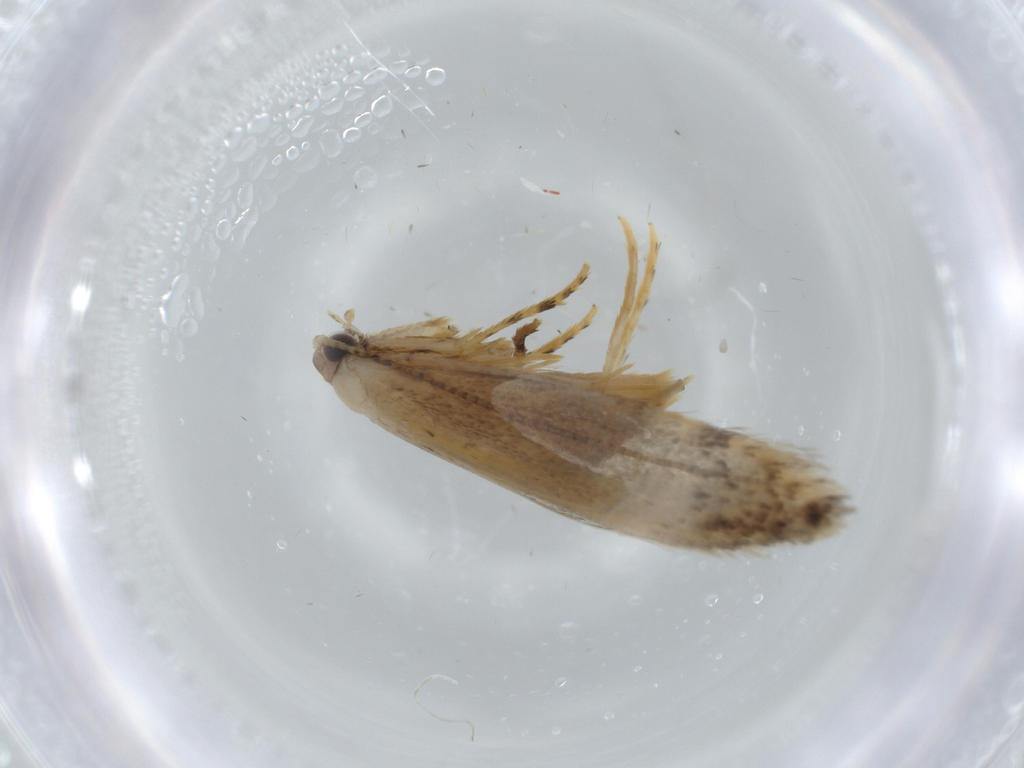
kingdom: Animalia
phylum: Arthropoda
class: Insecta
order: Lepidoptera
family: Tineidae
